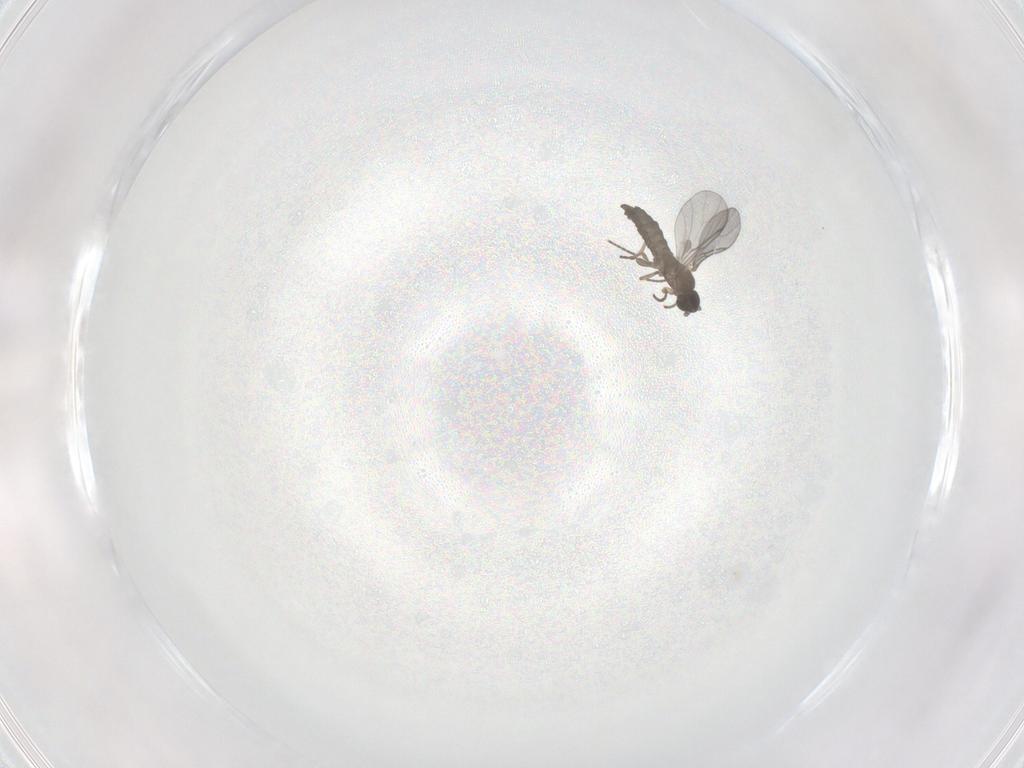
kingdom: Animalia
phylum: Arthropoda
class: Insecta
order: Diptera
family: Sciaridae
